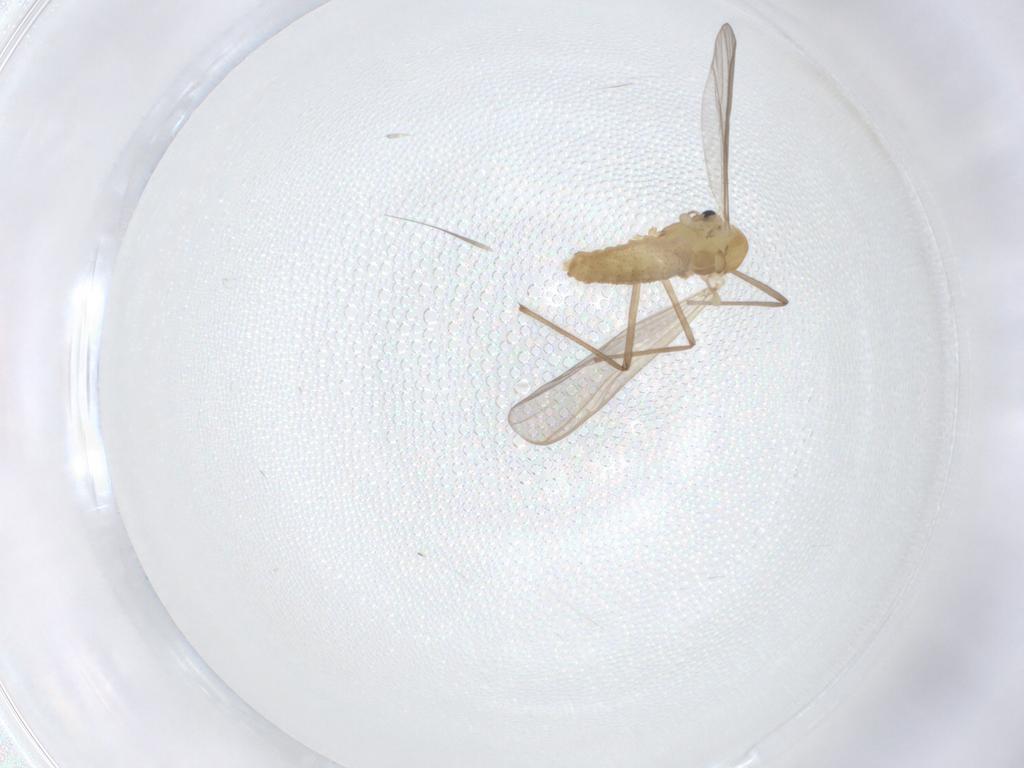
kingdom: Animalia
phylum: Arthropoda
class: Insecta
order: Diptera
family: Chironomidae
